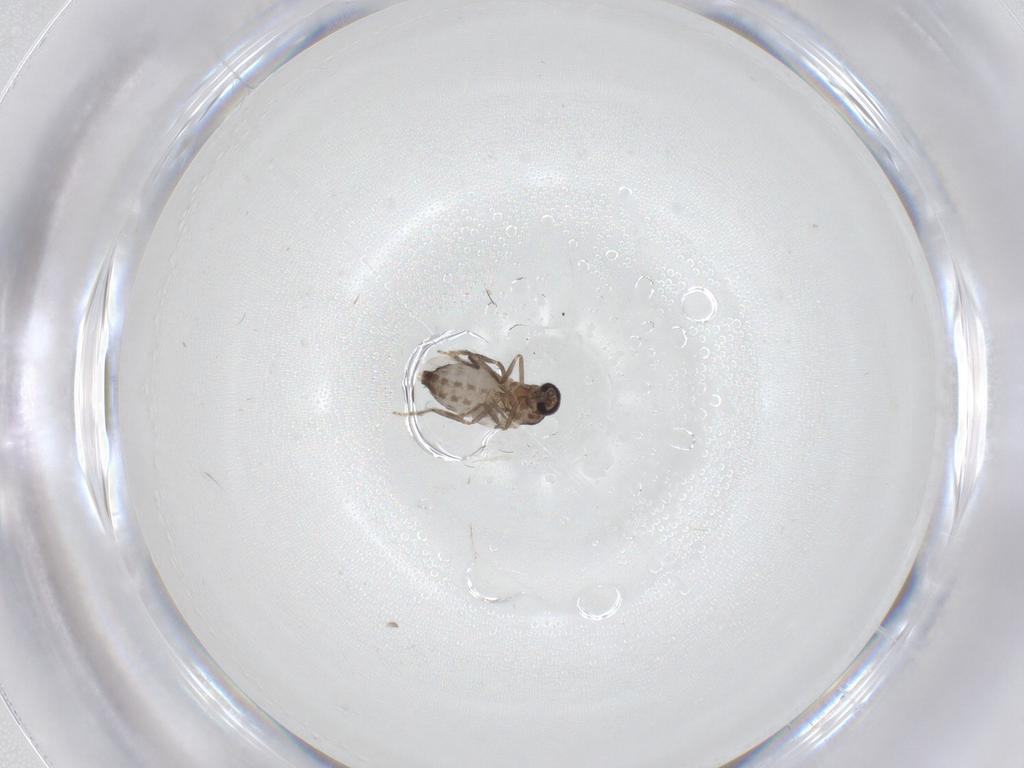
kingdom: Animalia
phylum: Arthropoda
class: Insecta
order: Diptera
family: Ceratopogonidae
